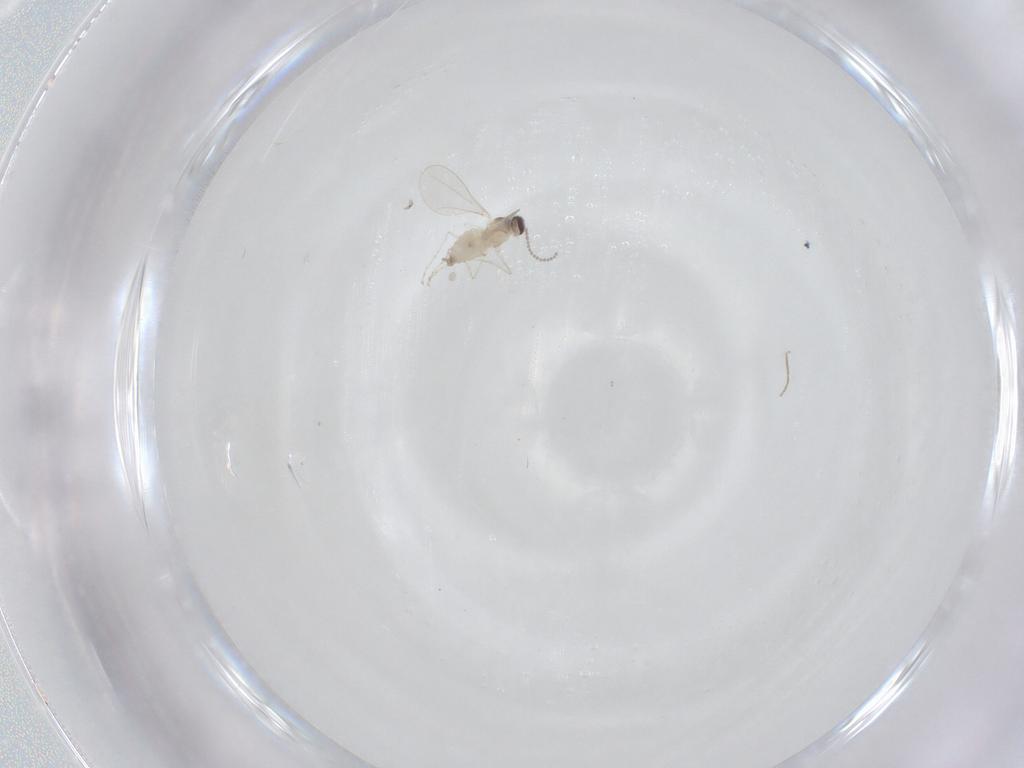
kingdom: Animalia
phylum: Arthropoda
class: Insecta
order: Diptera
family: Cecidomyiidae
